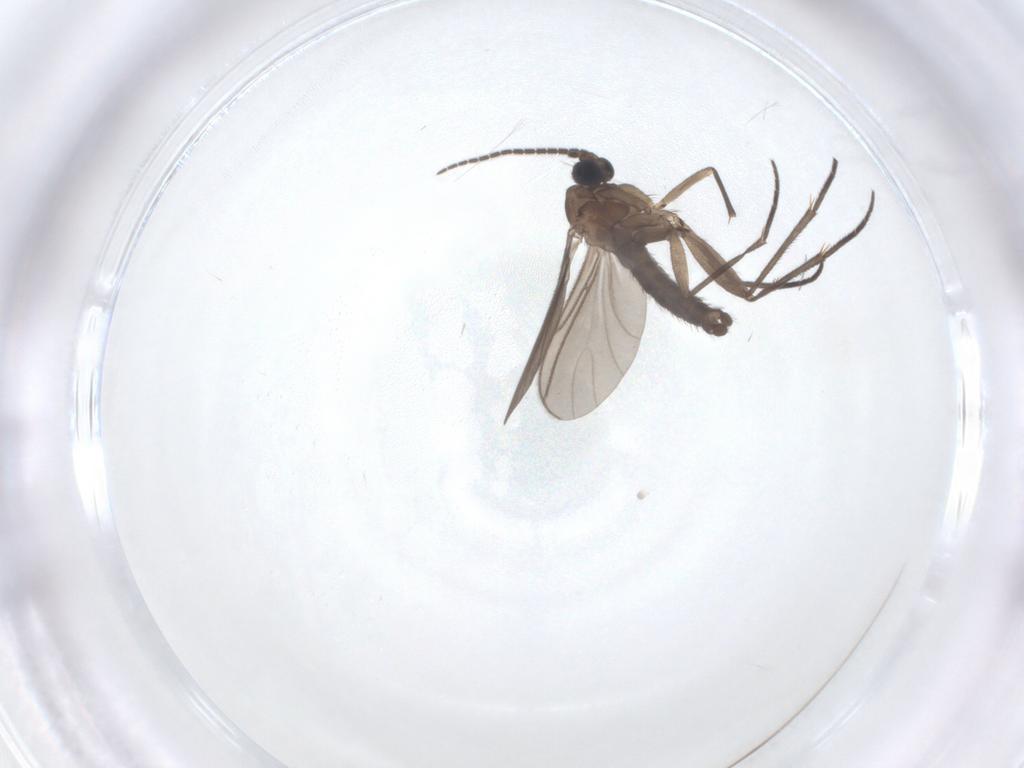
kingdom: Animalia
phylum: Arthropoda
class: Insecta
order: Diptera
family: Sciaridae
